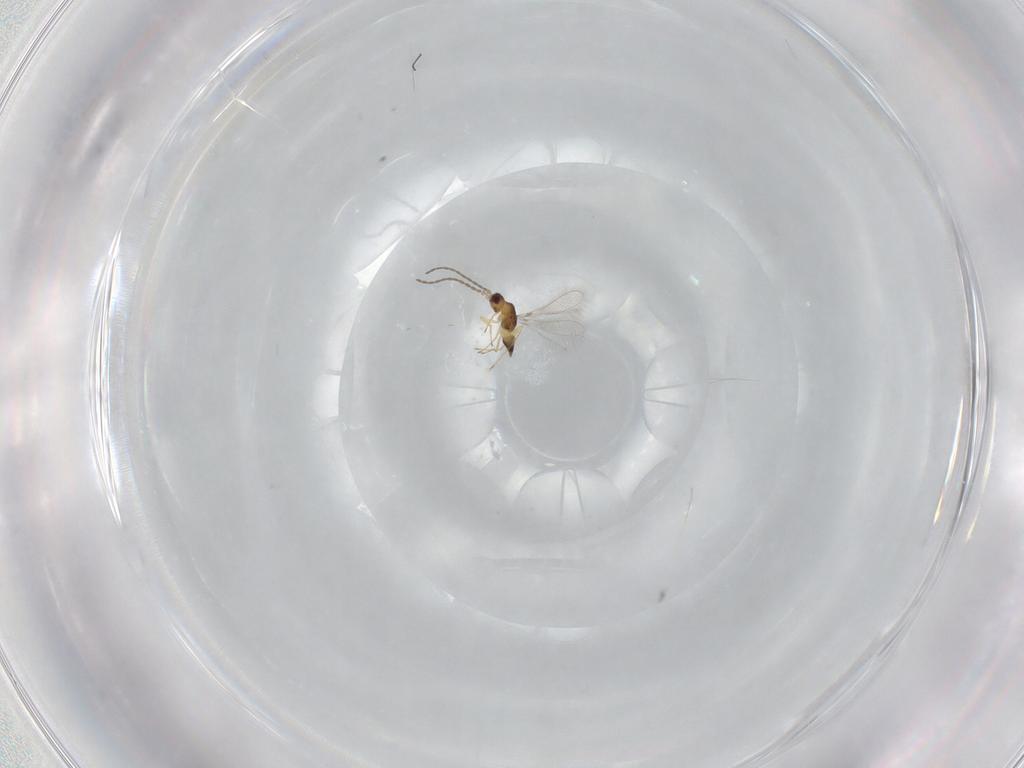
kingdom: Animalia
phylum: Arthropoda
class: Insecta
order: Hymenoptera
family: Mymaridae
